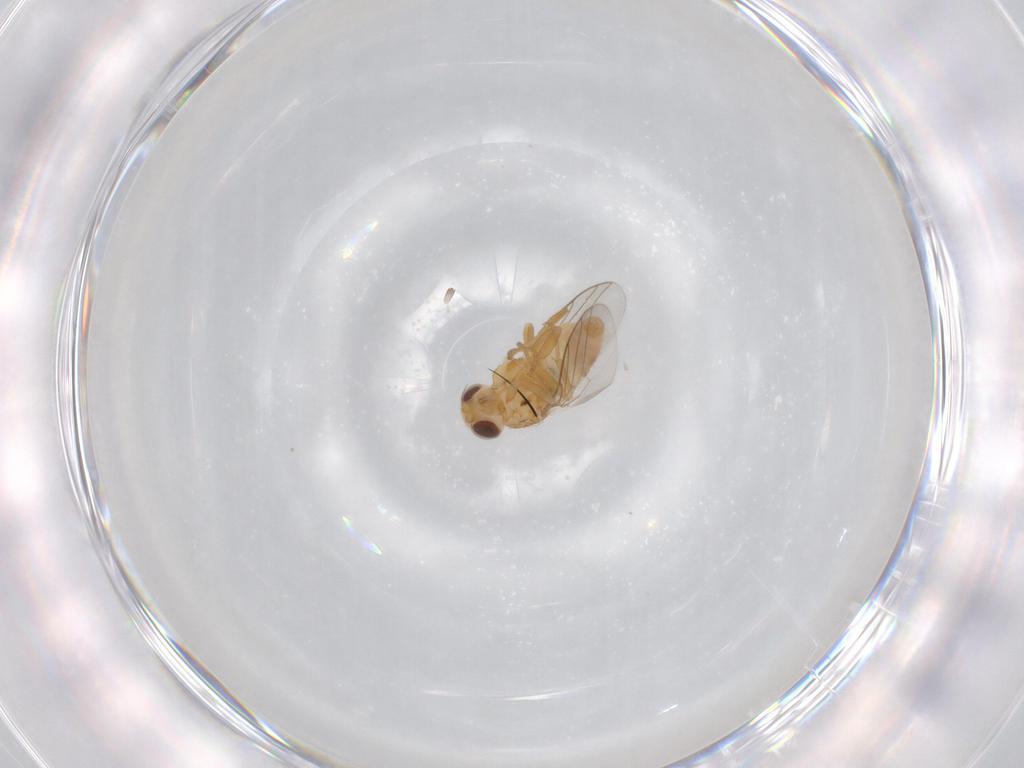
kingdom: Animalia
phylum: Arthropoda
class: Insecta
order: Diptera
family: Chloropidae
